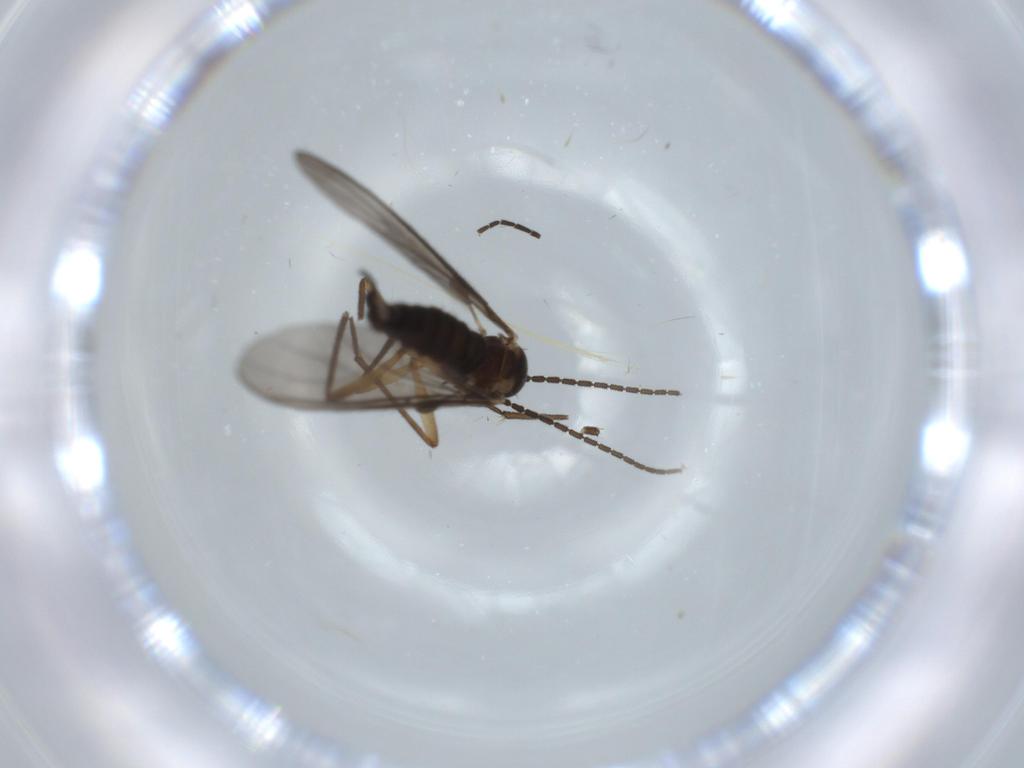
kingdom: Animalia
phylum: Arthropoda
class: Insecta
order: Diptera
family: Sciaridae
